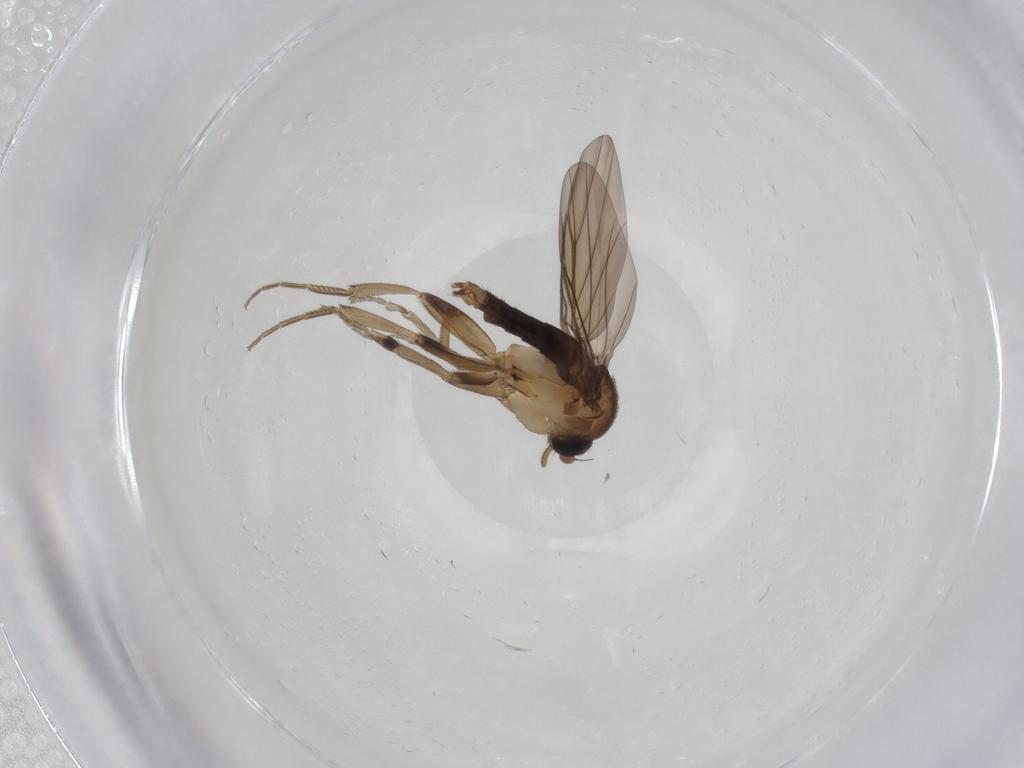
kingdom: Animalia
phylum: Arthropoda
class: Insecta
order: Diptera
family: Phoridae
